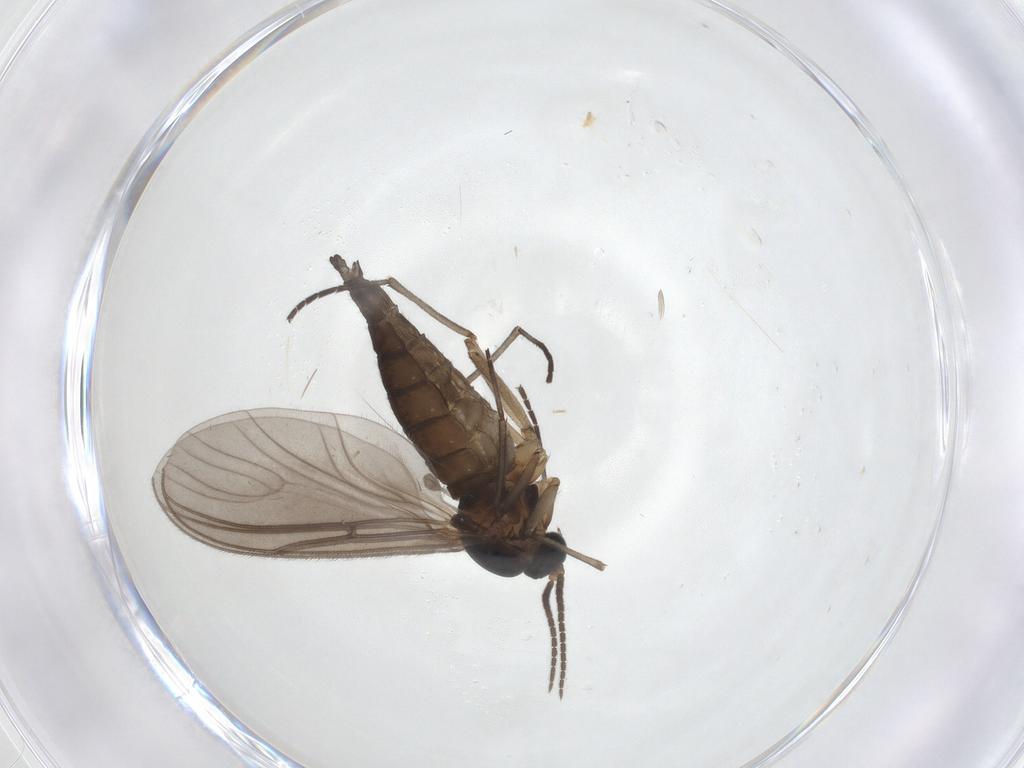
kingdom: Animalia
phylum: Arthropoda
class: Insecta
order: Diptera
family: Sciaridae
